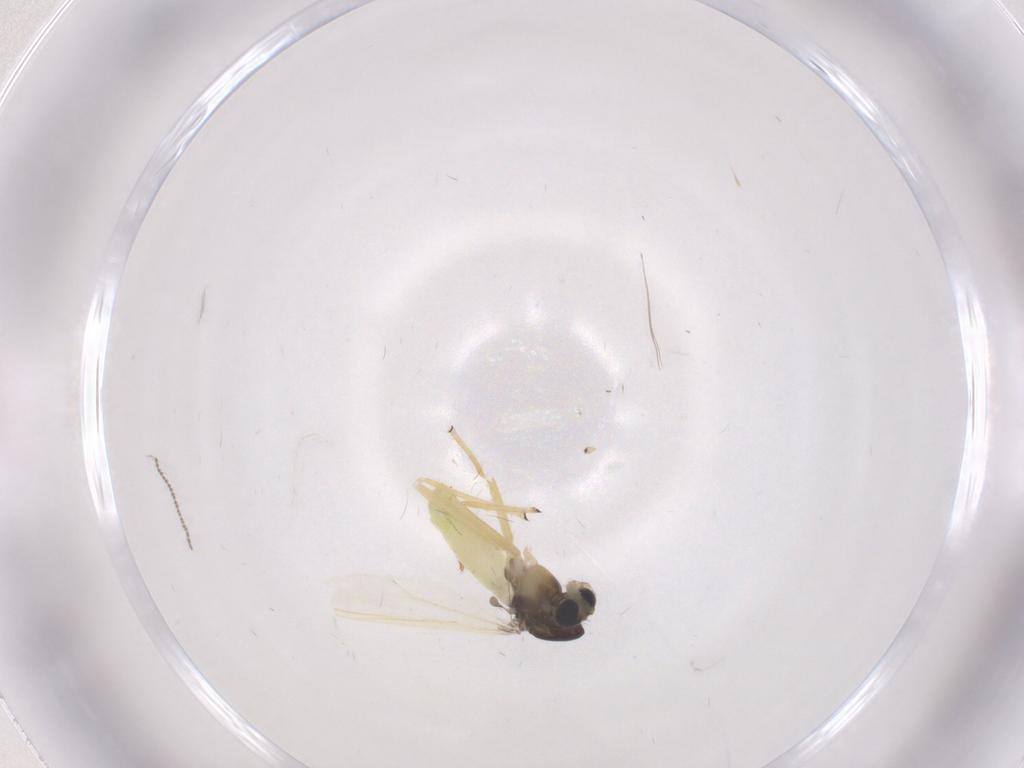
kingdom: Animalia
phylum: Arthropoda
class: Insecta
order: Diptera
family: Chironomidae
